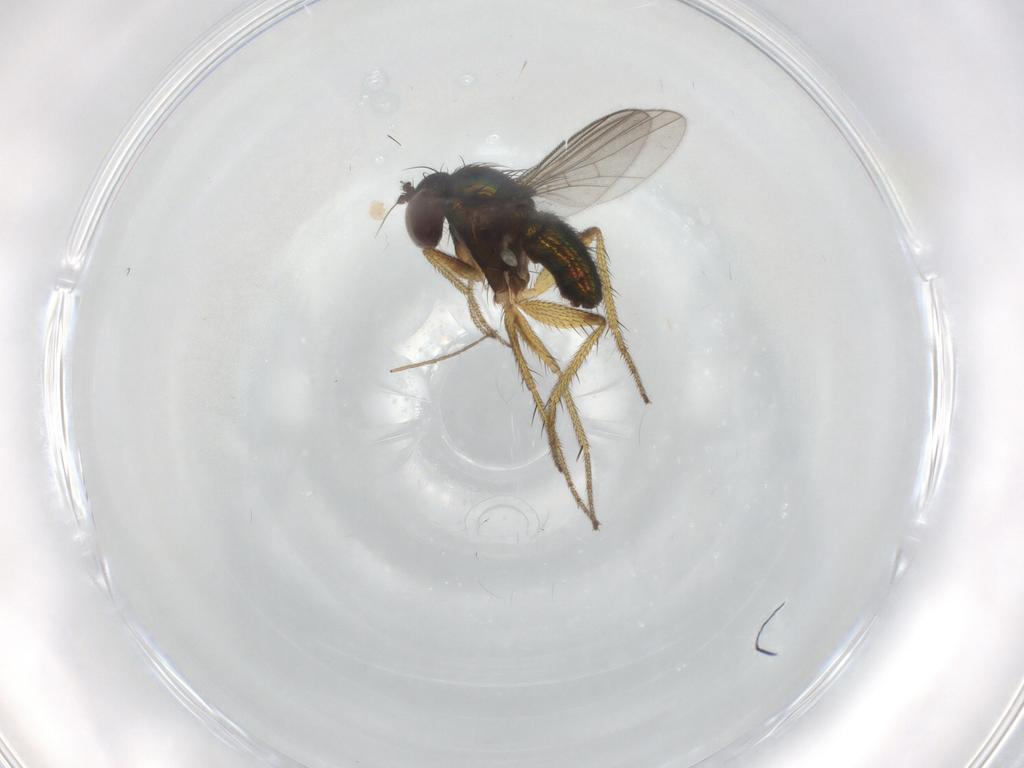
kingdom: Animalia
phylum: Arthropoda
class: Insecta
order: Diptera
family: Dolichopodidae
